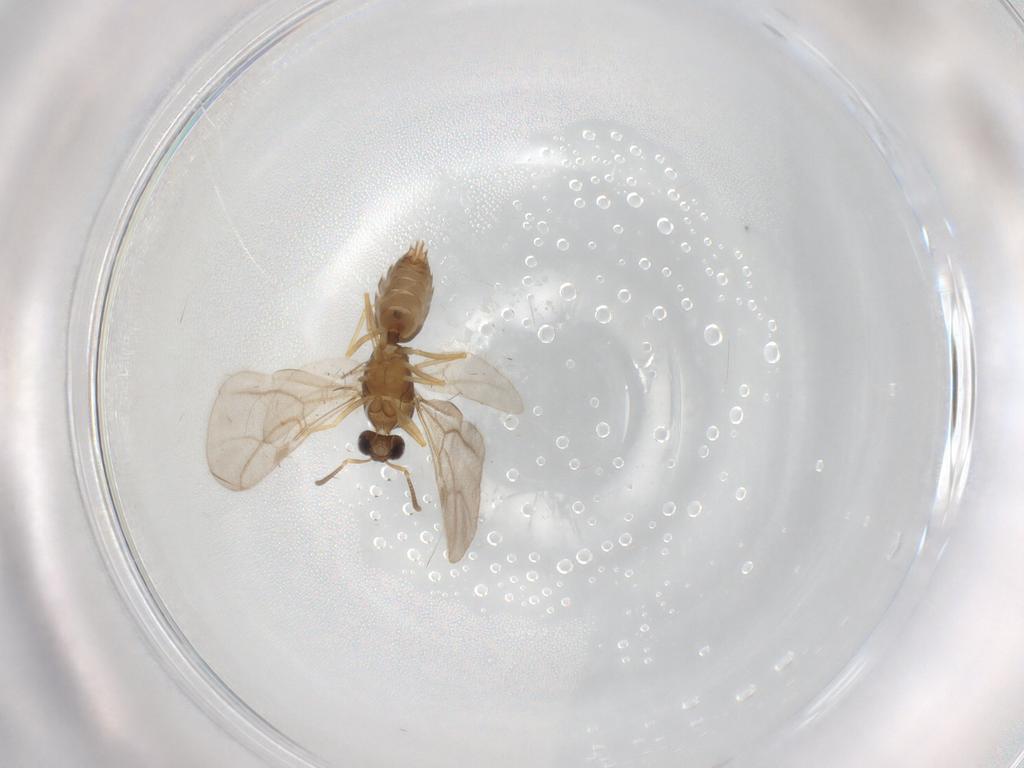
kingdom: Animalia
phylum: Arthropoda
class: Insecta
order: Hymenoptera
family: Formicidae
